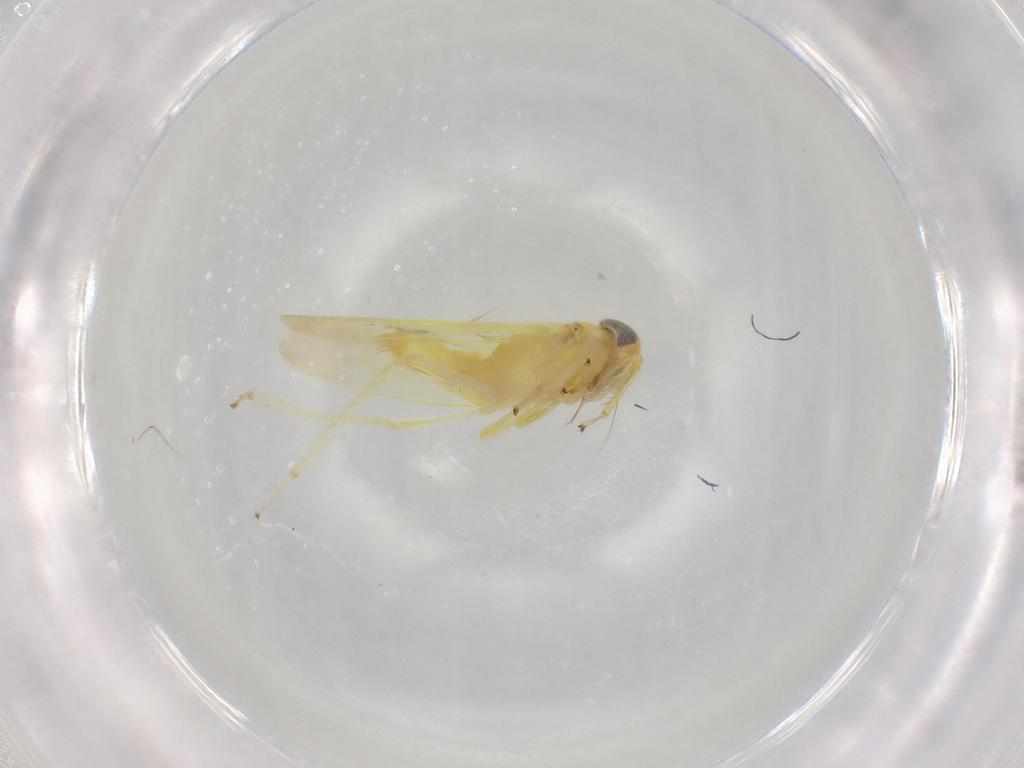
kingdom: Animalia
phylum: Arthropoda
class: Insecta
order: Hemiptera
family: Cicadellidae
